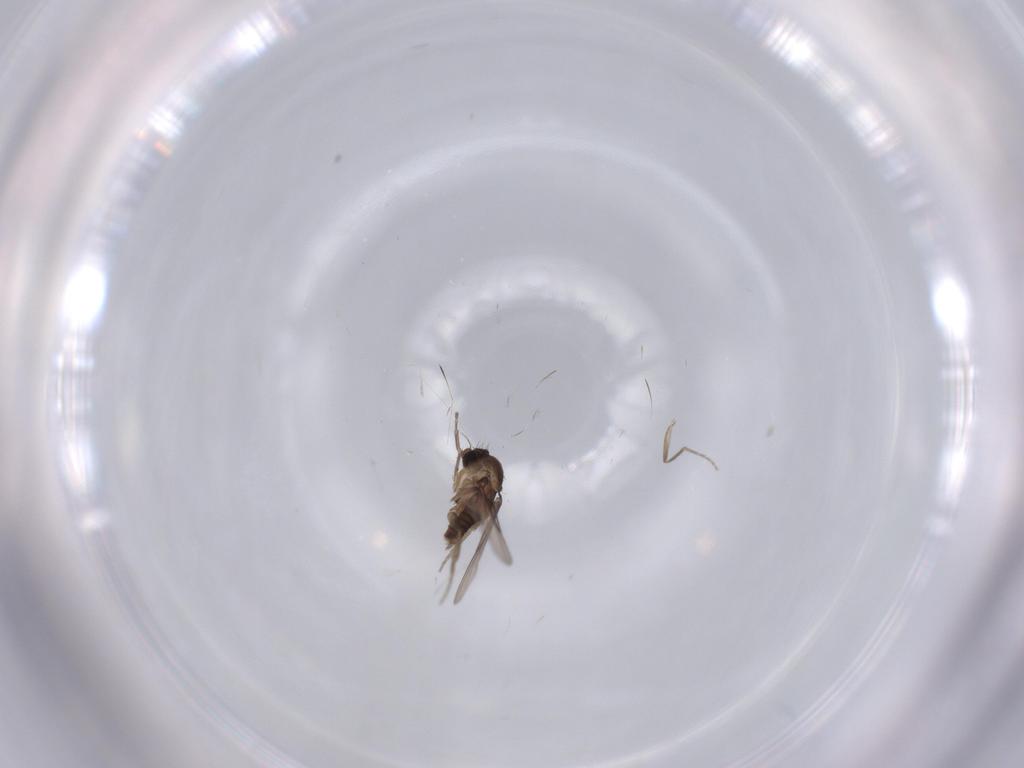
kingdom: Animalia
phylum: Arthropoda
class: Insecta
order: Diptera
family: Phoridae
